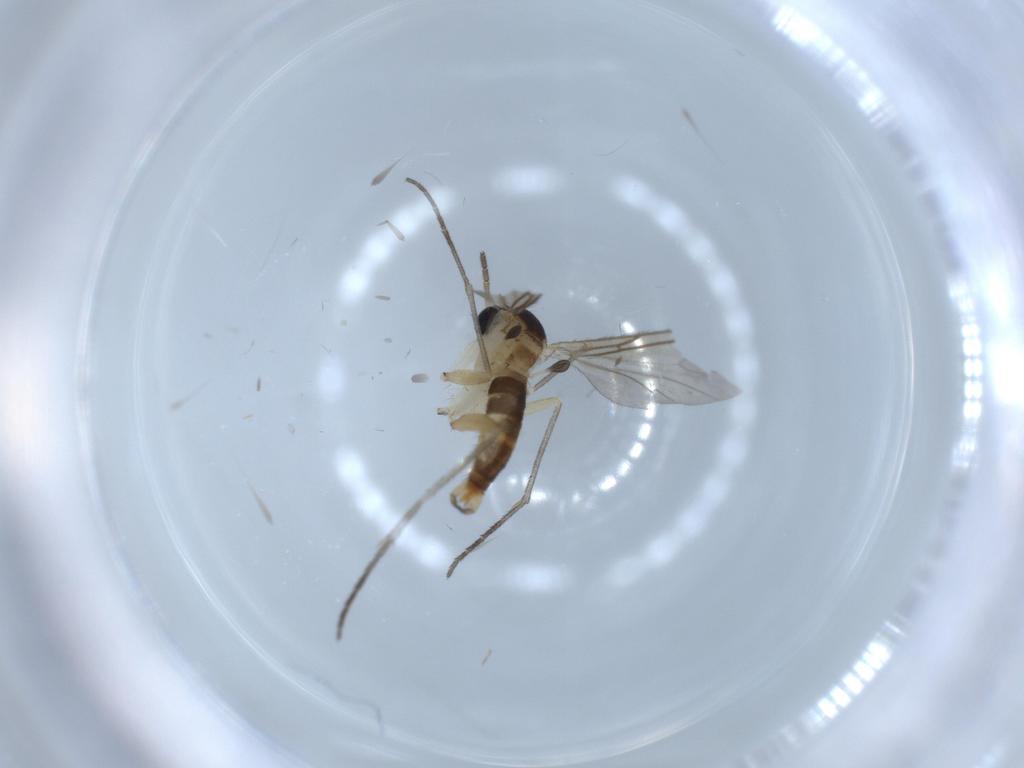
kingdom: Animalia
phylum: Arthropoda
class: Insecta
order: Diptera
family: Sciaridae
